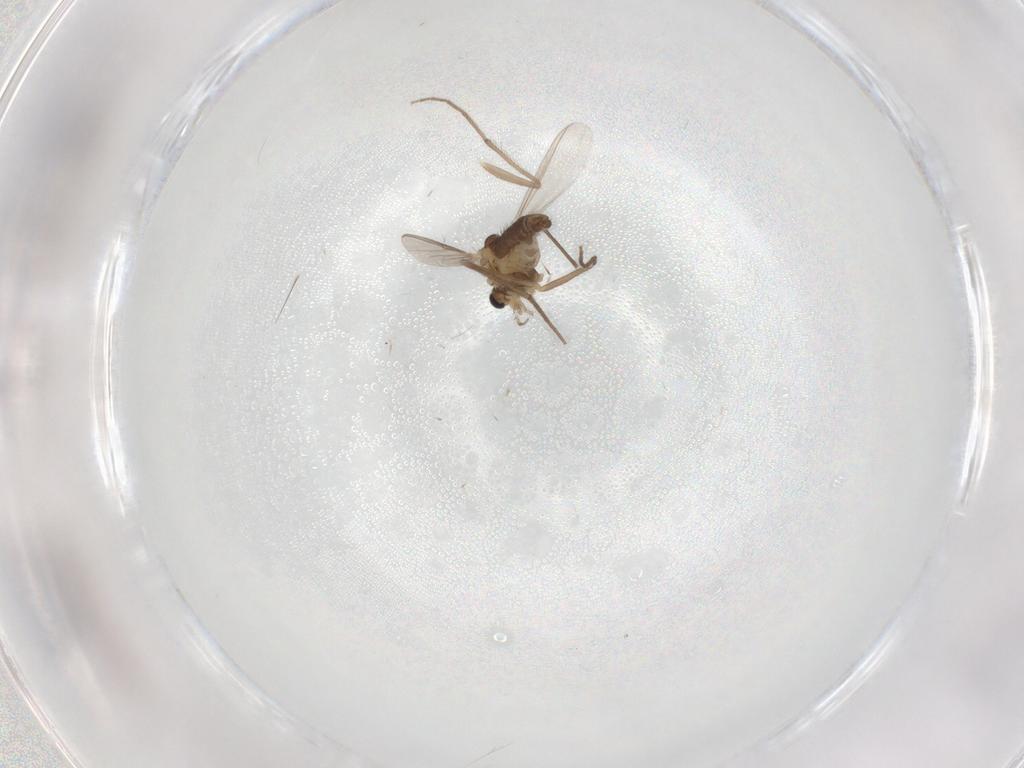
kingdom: Animalia
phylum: Arthropoda
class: Insecta
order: Diptera
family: Chironomidae
